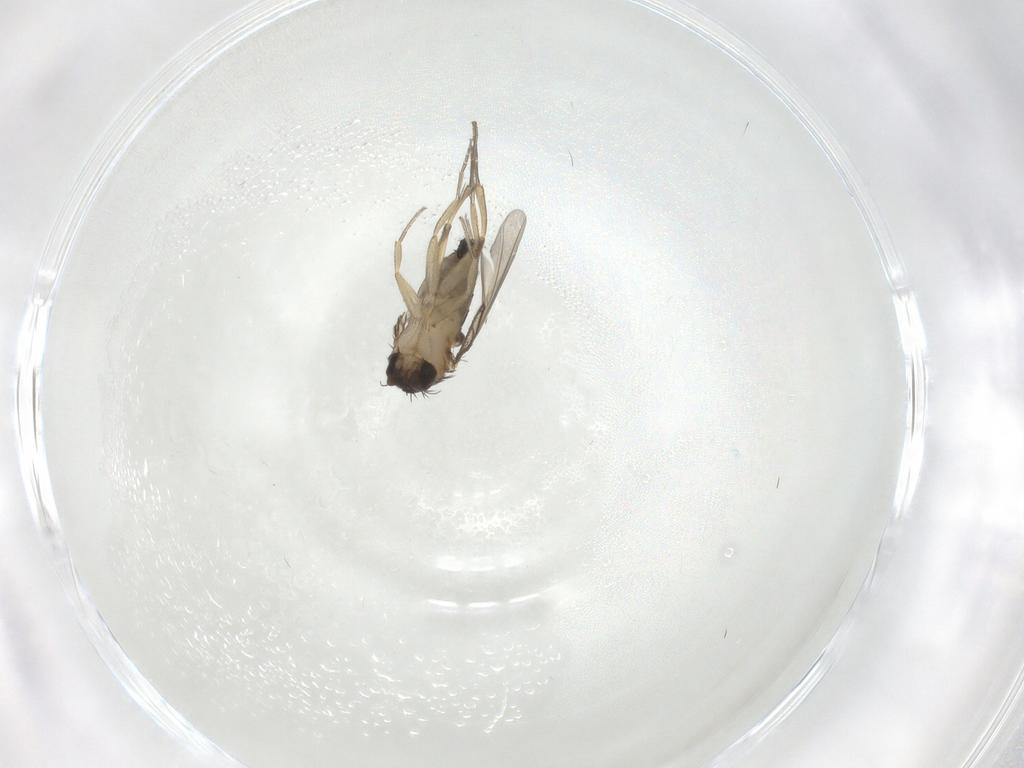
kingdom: Animalia
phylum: Arthropoda
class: Insecta
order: Diptera
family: Phoridae
